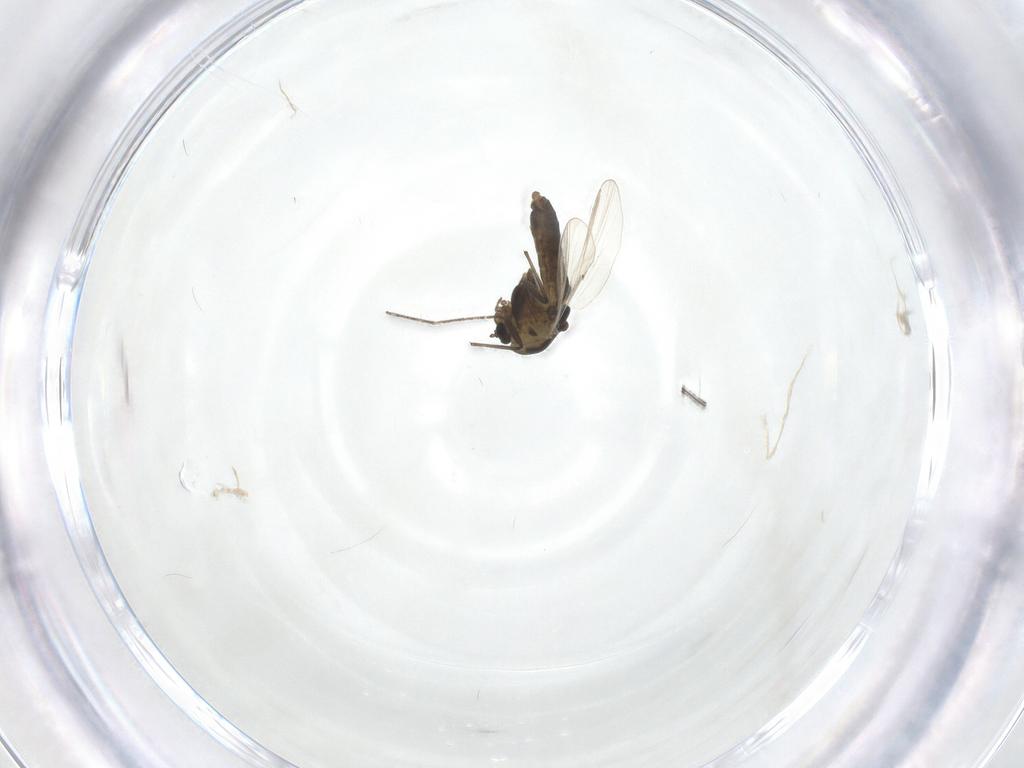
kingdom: Animalia
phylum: Arthropoda
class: Insecta
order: Diptera
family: Chironomidae
